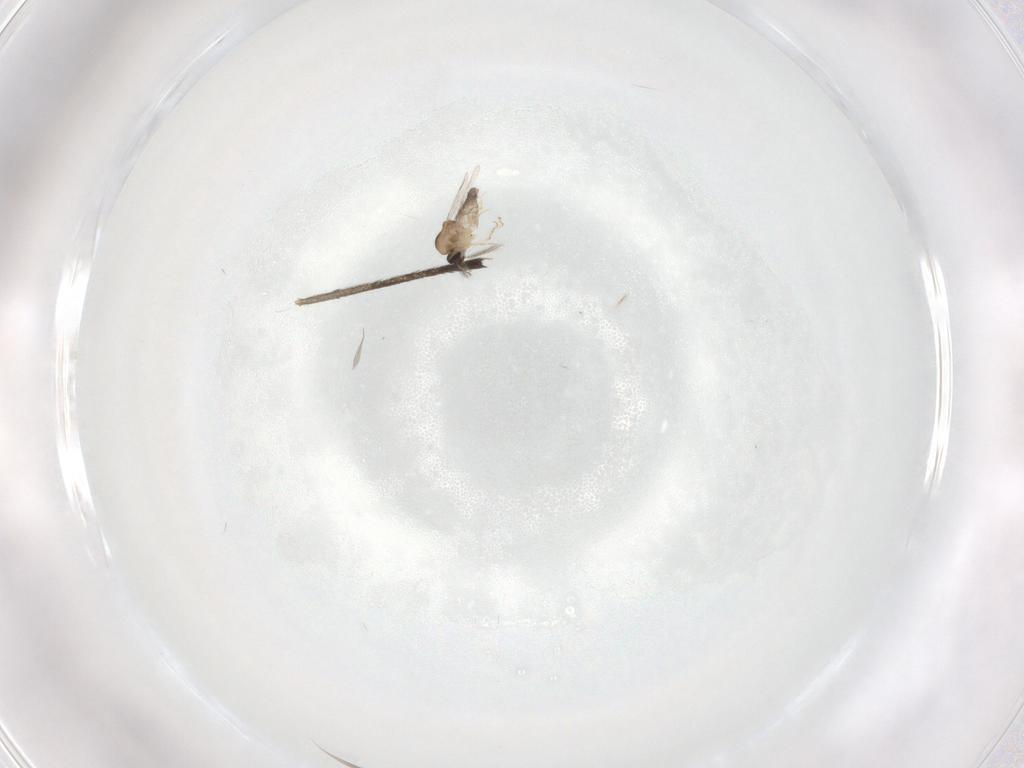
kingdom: Animalia
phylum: Arthropoda
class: Insecta
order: Diptera
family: Ceratopogonidae
